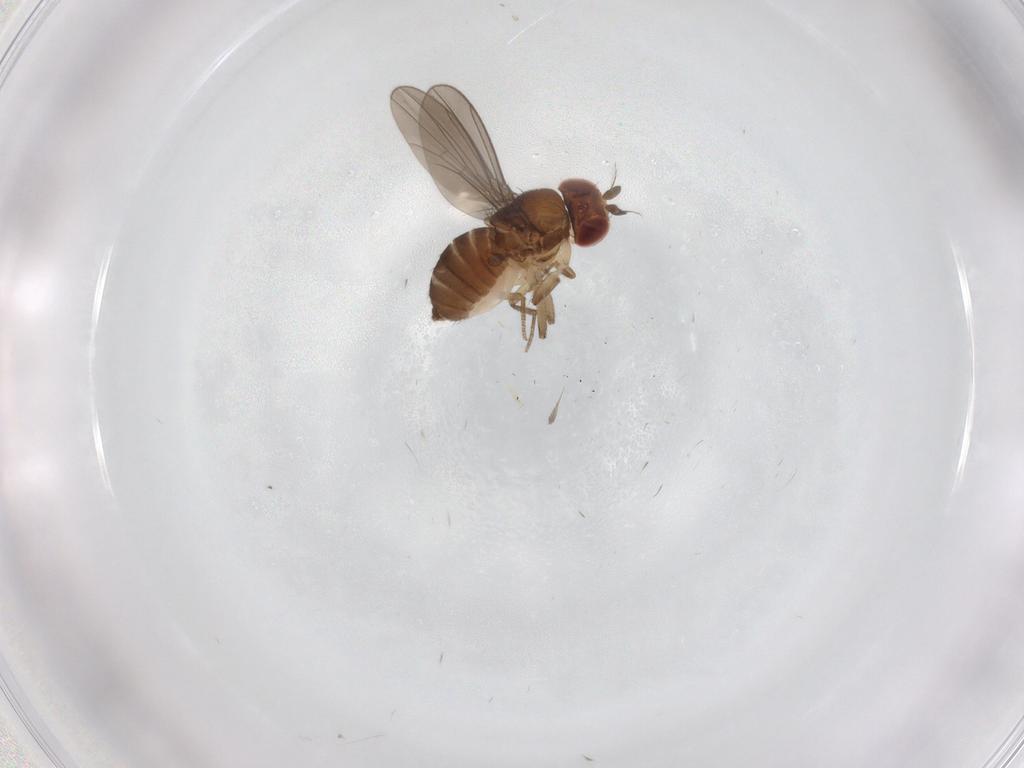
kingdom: Animalia
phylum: Arthropoda
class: Insecta
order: Diptera
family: Drosophilidae
